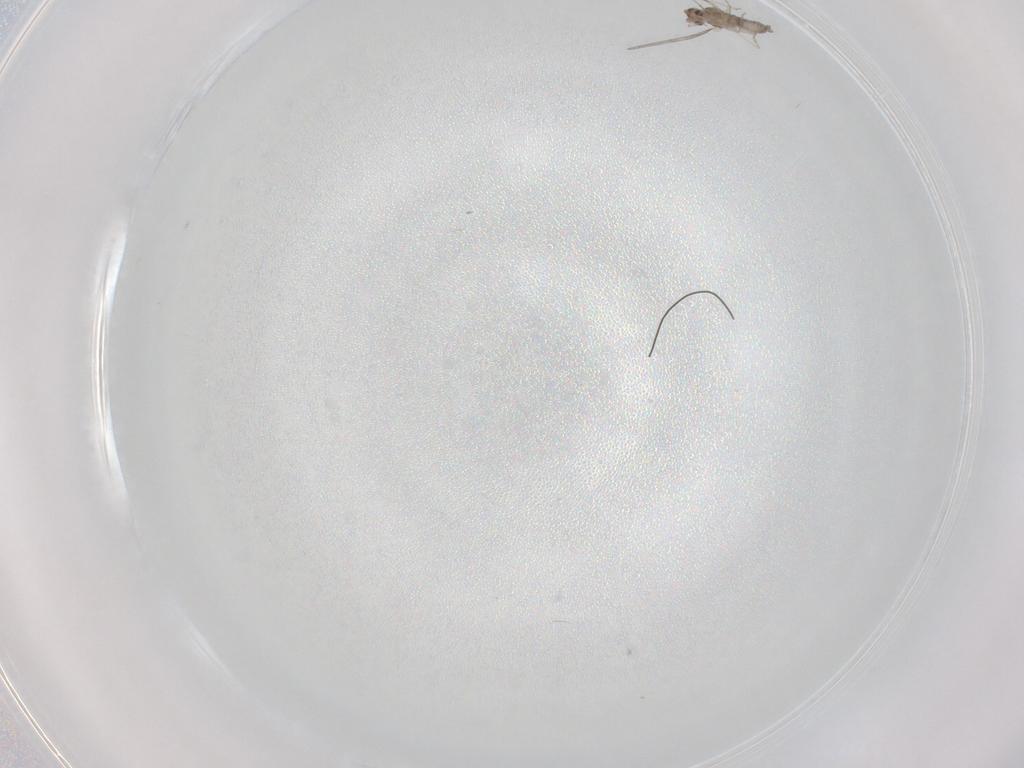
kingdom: Animalia
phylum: Arthropoda
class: Insecta
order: Diptera
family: Cecidomyiidae
